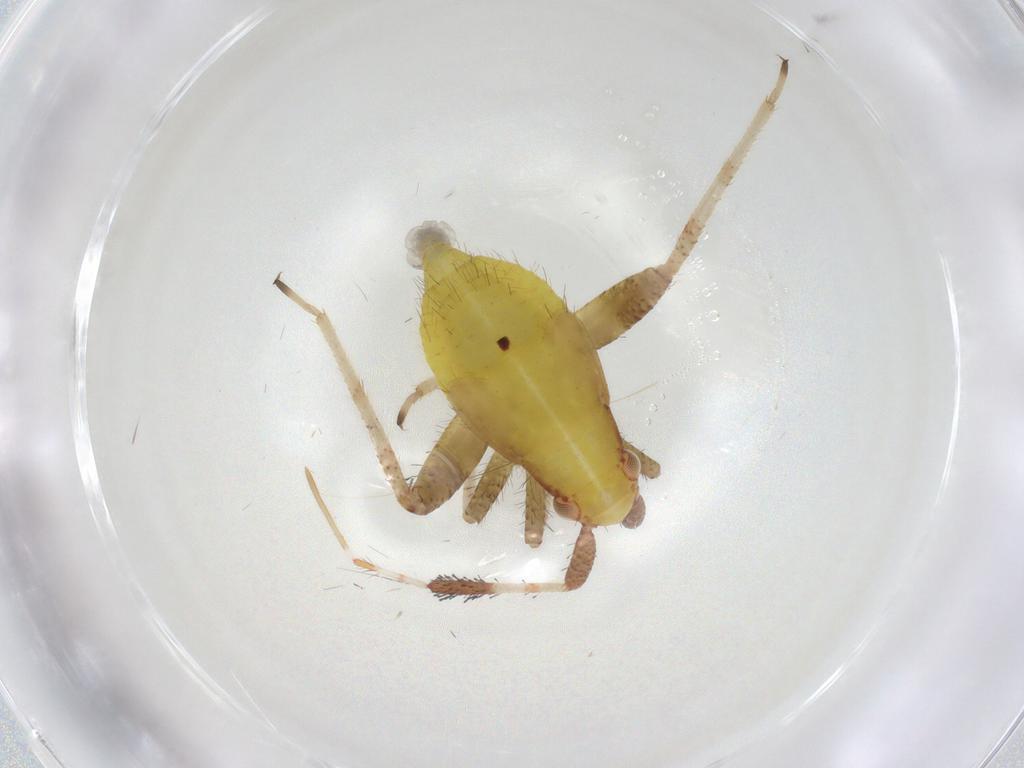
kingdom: Animalia
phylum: Arthropoda
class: Insecta
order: Hemiptera
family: Miridae
